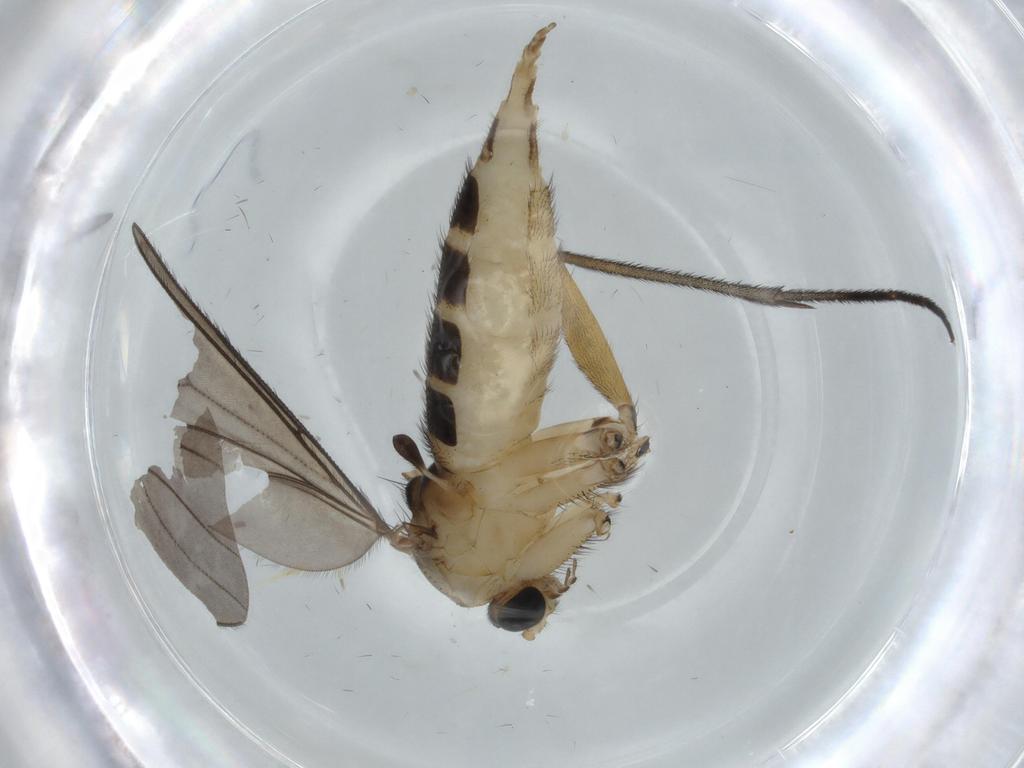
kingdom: Animalia
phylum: Arthropoda
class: Insecta
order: Diptera
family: Sciaridae
